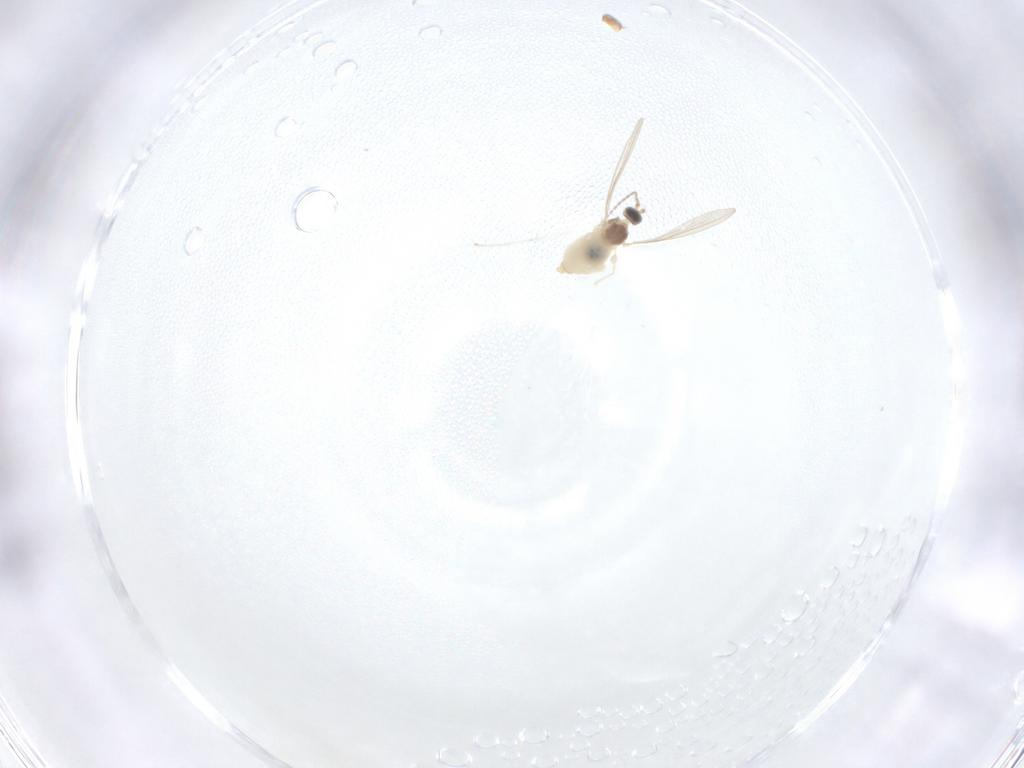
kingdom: Animalia
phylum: Arthropoda
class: Insecta
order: Diptera
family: Cecidomyiidae
